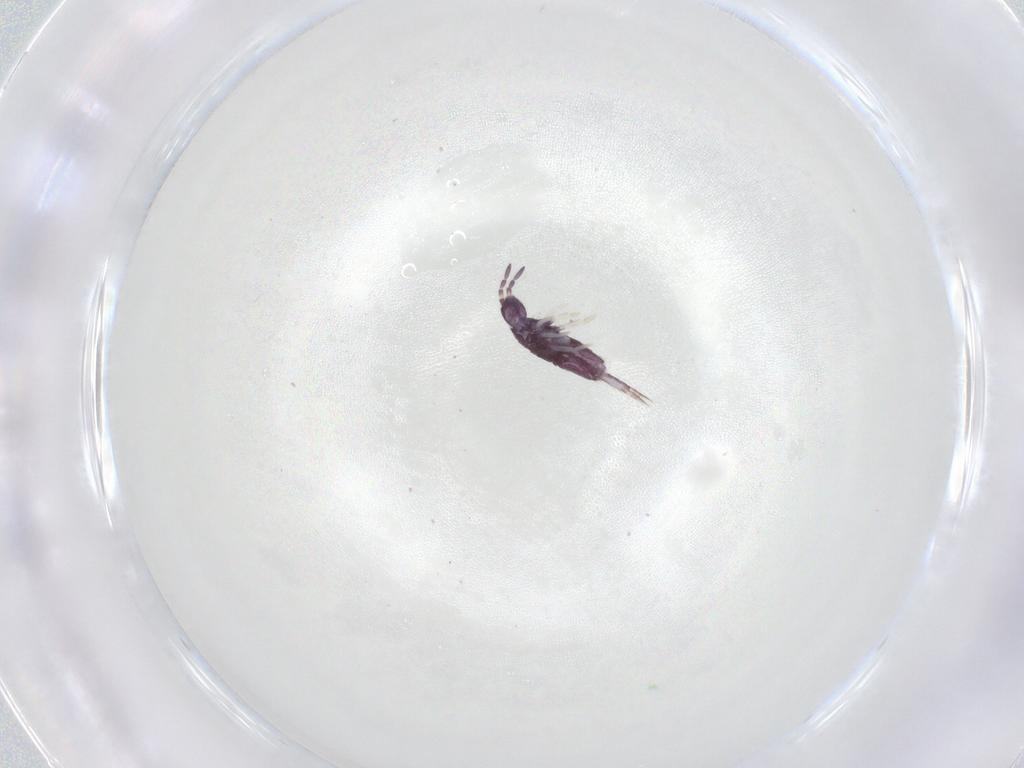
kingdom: Animalia
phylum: Arthropoda
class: Collembola
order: Entomobryomorpha
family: Entomobryidae
